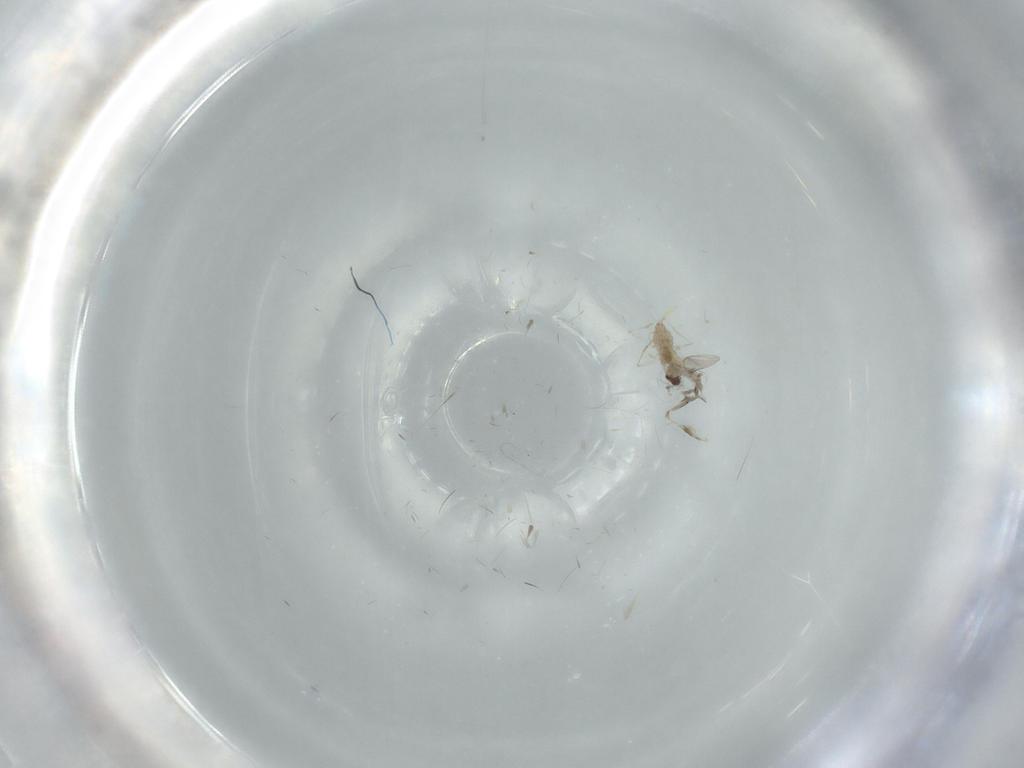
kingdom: Animalia
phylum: Arthropoda
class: Insecta
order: Diptera
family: Cecidomyiidae
